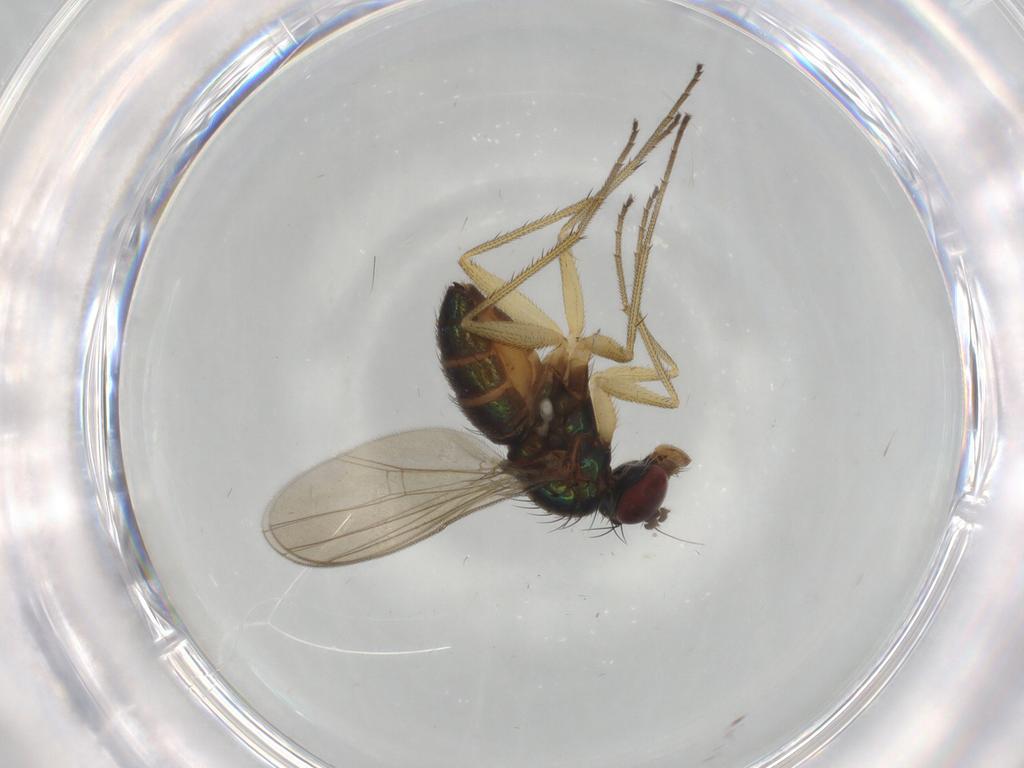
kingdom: Animalia
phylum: Arthropoda
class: Insecta
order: Diptera
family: Dolichopodidae
